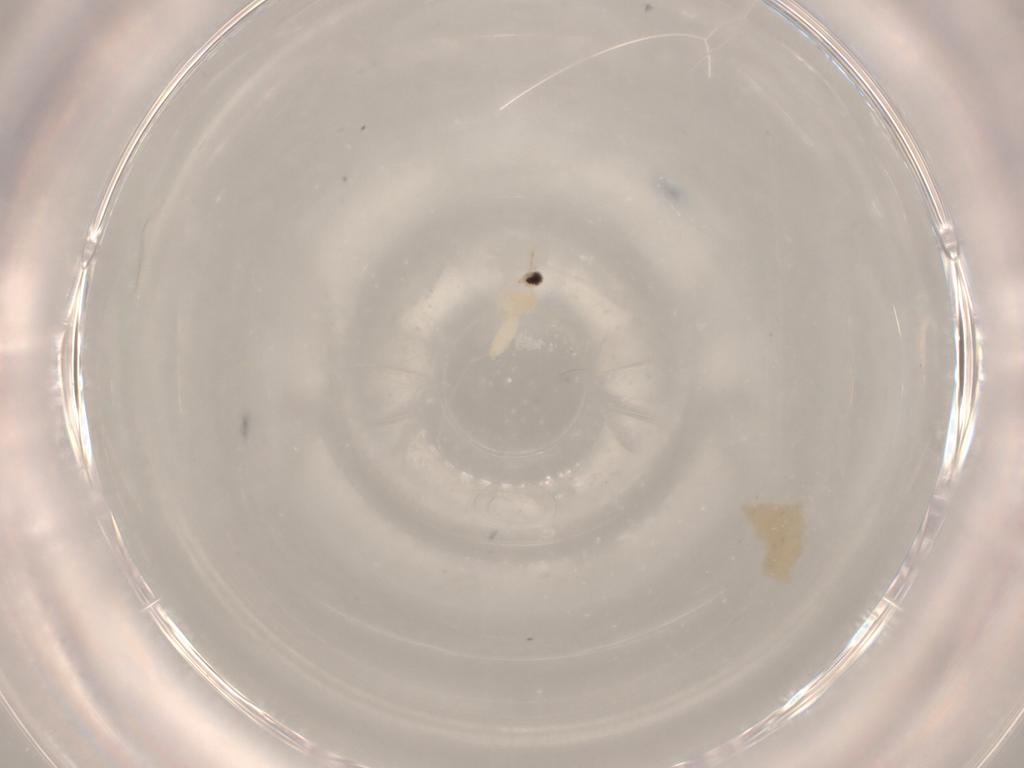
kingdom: Animalia
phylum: Arthropoda
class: Insecta
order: Diptera
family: Cecidomyiidae
